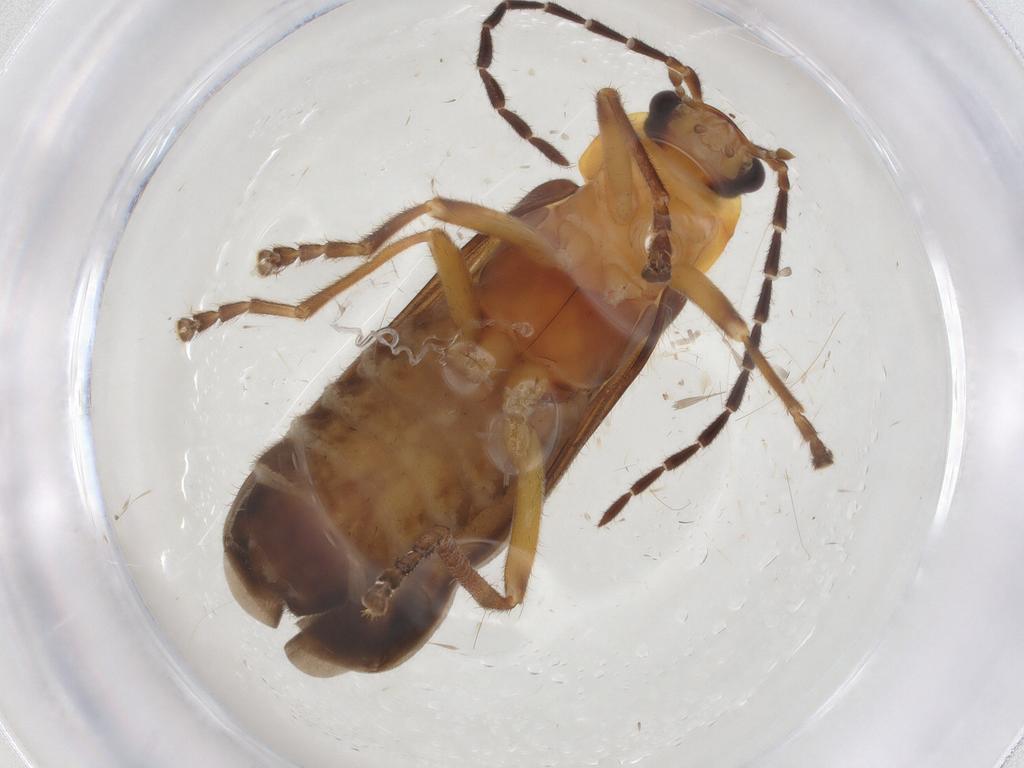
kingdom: Animalia
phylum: Arthropoda
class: Insecta
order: Coleoptera
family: Ptilodactylidae
